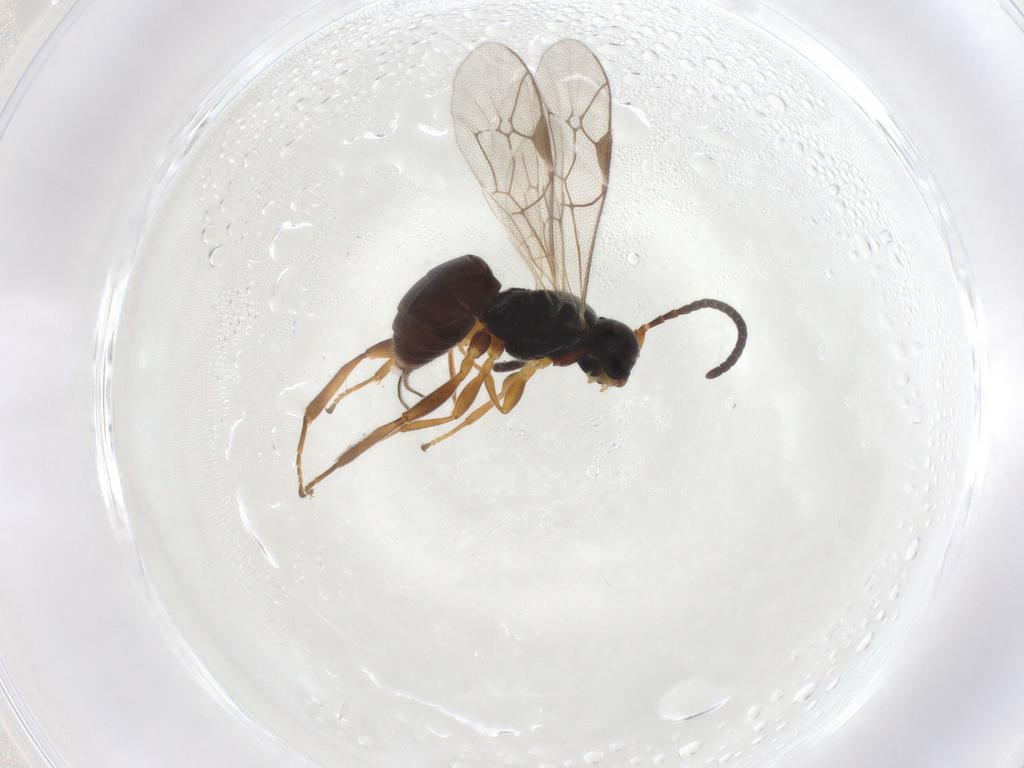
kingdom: Animalia
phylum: Arthropoda
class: Insecta
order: Hymenoptera
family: Ichneumonidae
